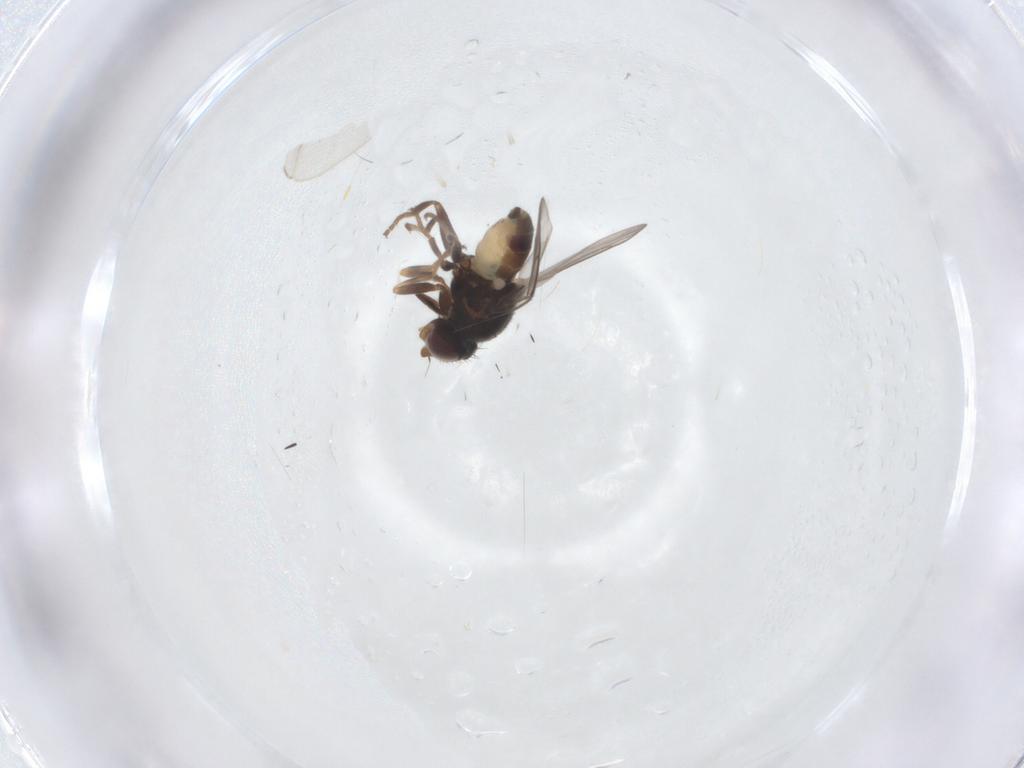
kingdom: Animalia
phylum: Arthropoda
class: Insecta
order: Diptera
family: Chloropidae
